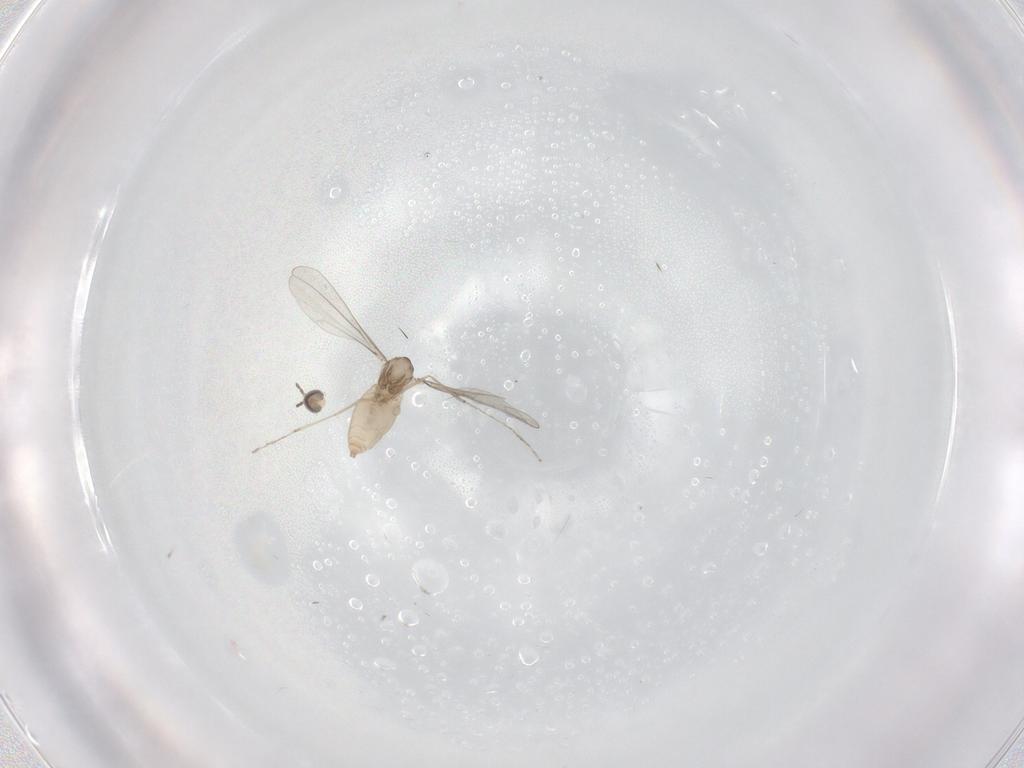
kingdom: Animalia
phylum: Arthropoda
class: Insecta
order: Diptera
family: Cecidomyiidae
